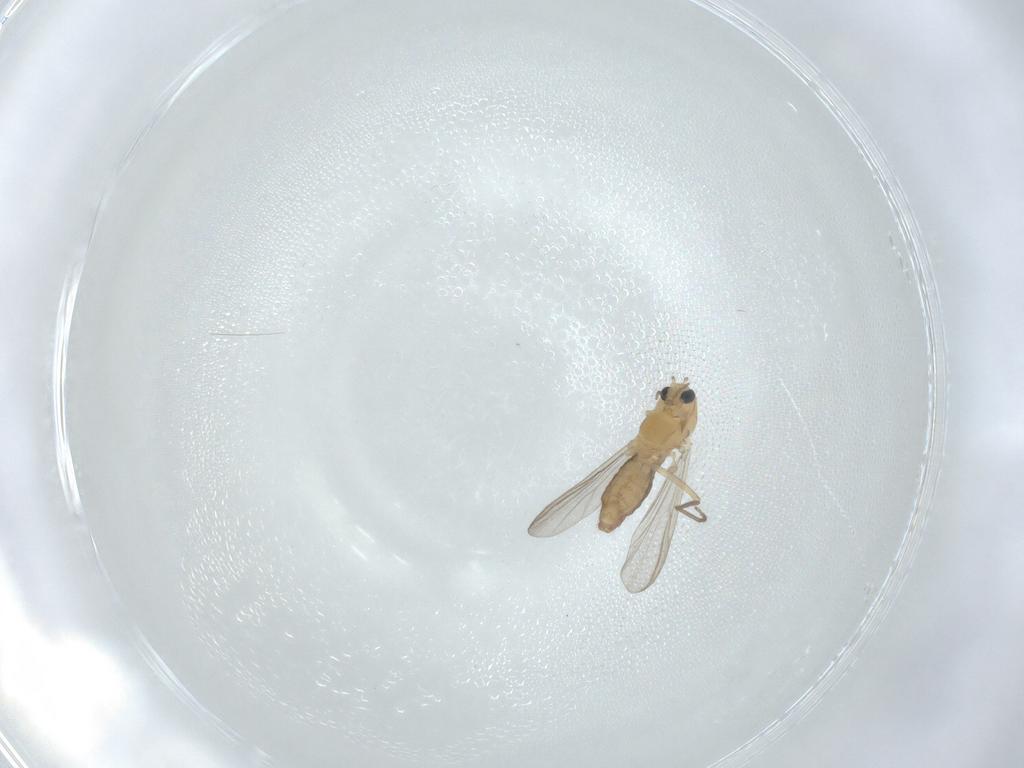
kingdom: Animalia
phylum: Arthropoda
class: Insecta
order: Diptera
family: Chironomidae
